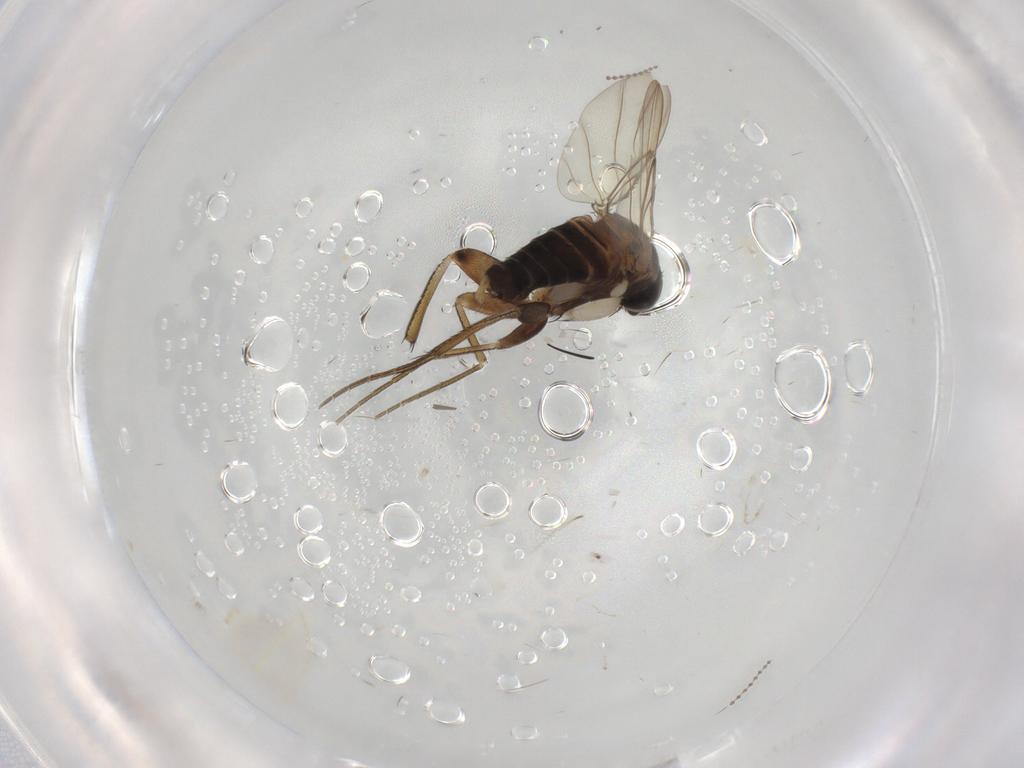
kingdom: Animalia
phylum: Arthropoda
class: Insecta
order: Diptera
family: Phoridae
